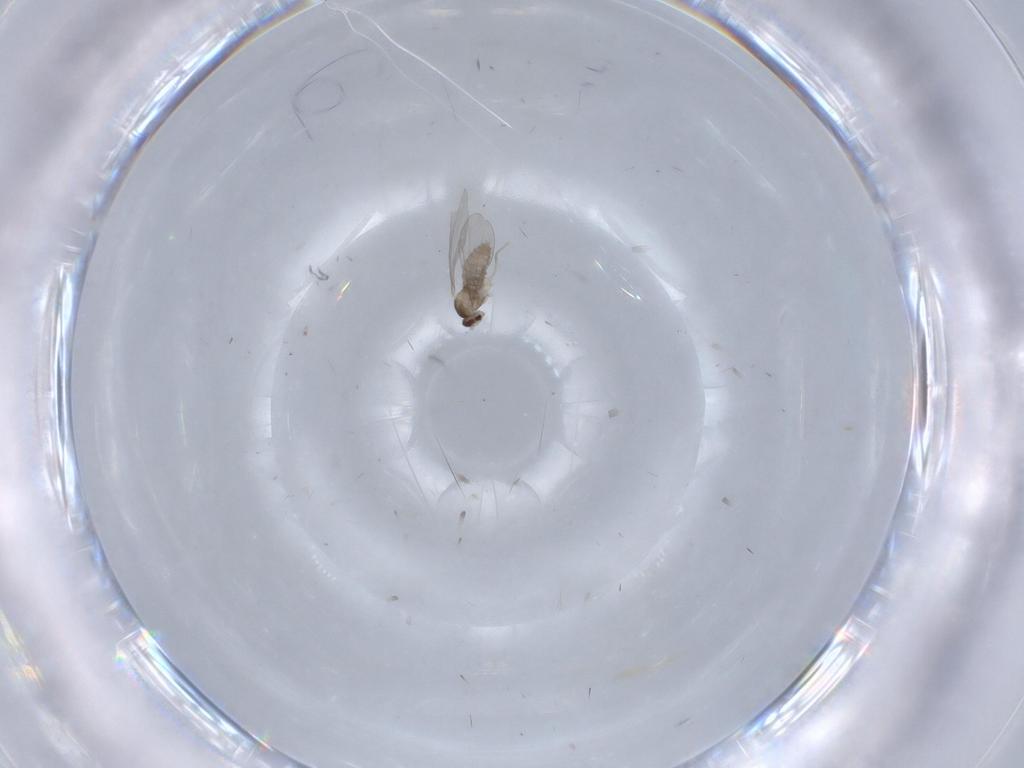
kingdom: Animalia
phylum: Arthropoda
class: Insecta
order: Diptera
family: Cecidomyiidae
